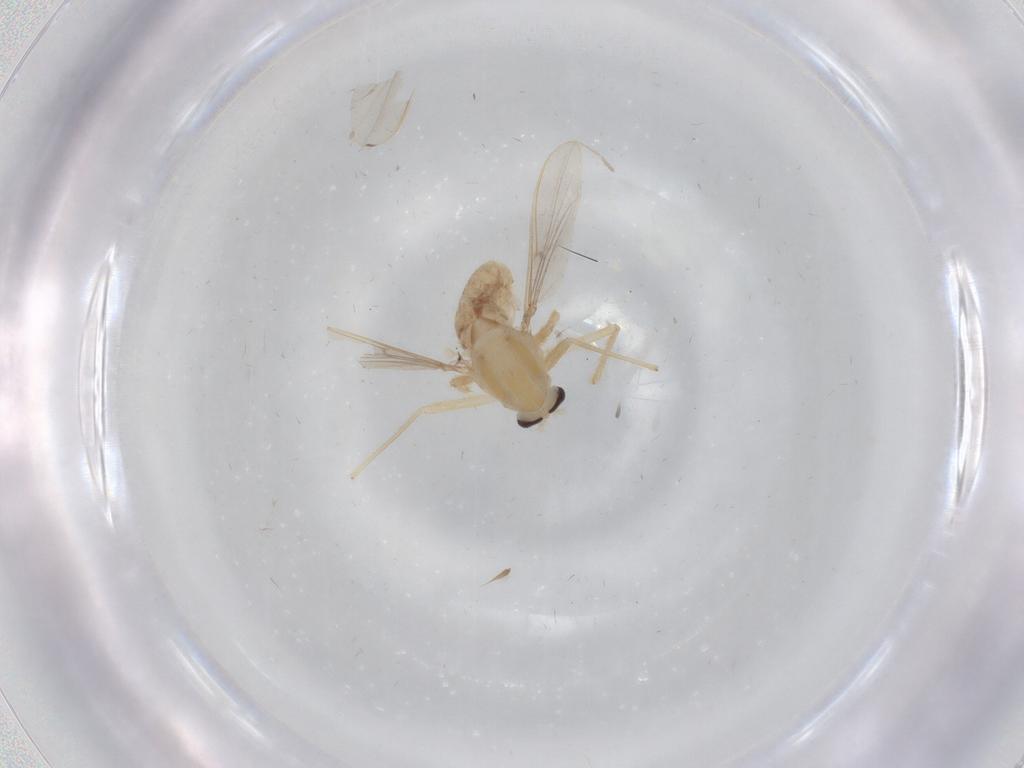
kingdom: Animalia
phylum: Arthropoda
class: Insecta
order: Diptera
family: Chironomidae
